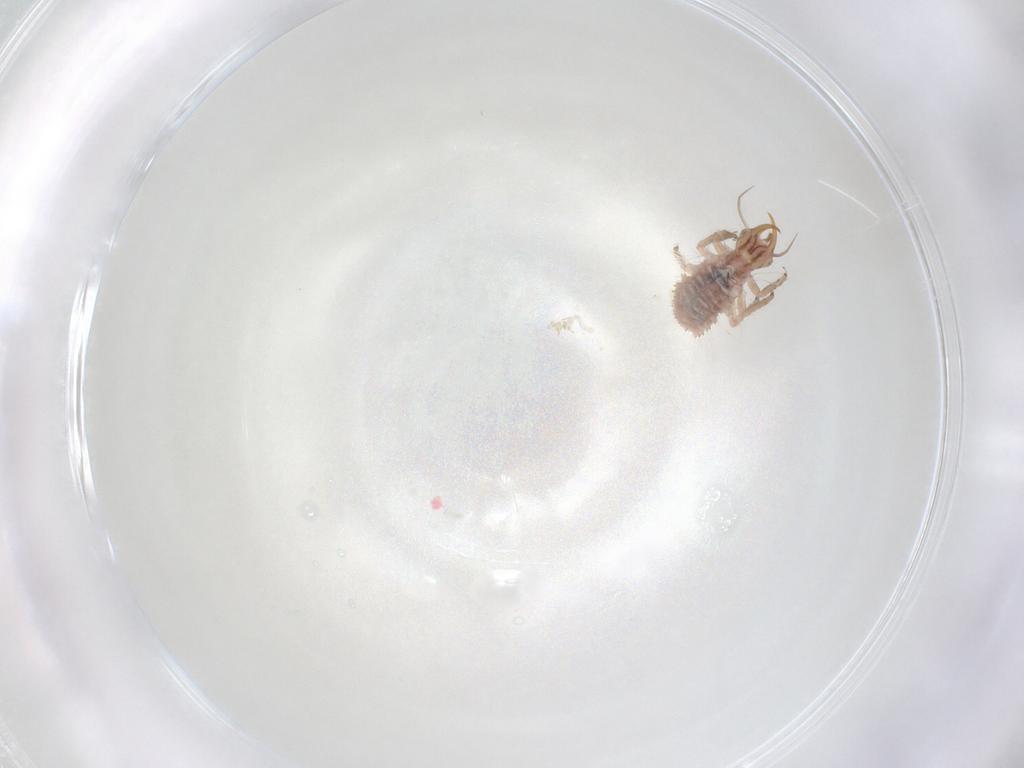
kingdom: Animalia
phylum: Arthropoda
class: Insecta
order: Neuroptera
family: Chrysopidae
